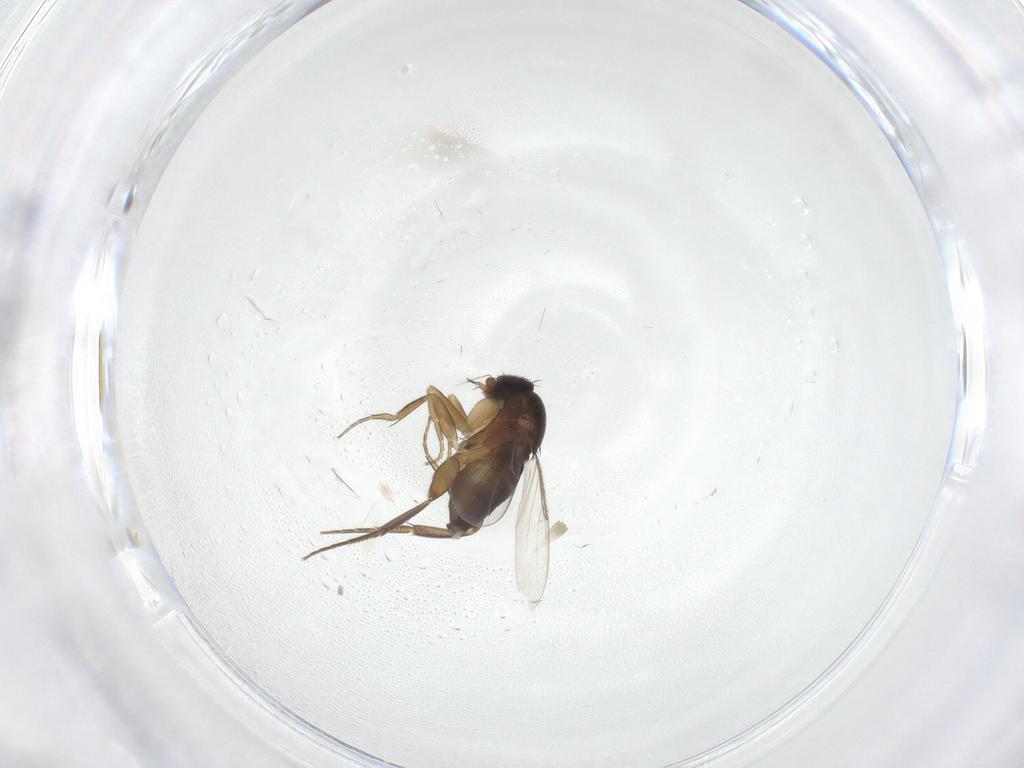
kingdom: Animalia
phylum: Arthropoda
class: Insecta
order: Diptera
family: Phoridae
